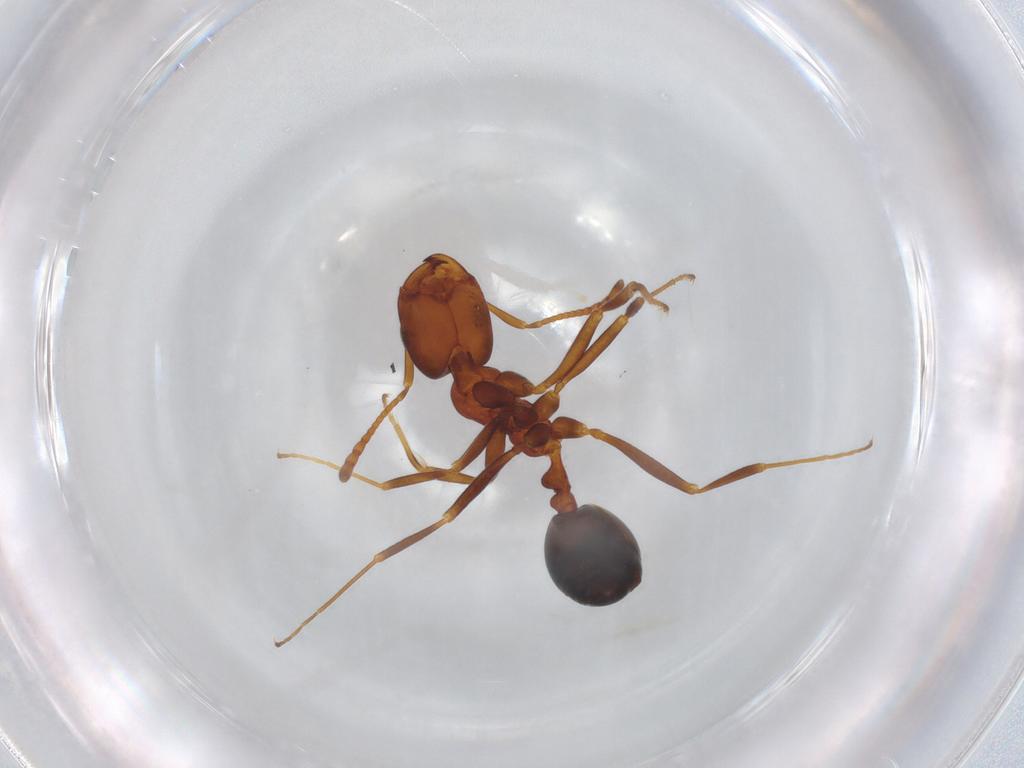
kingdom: Animalia
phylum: Arthropoda
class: Insecta
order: Hymenoptera
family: Formicidae
